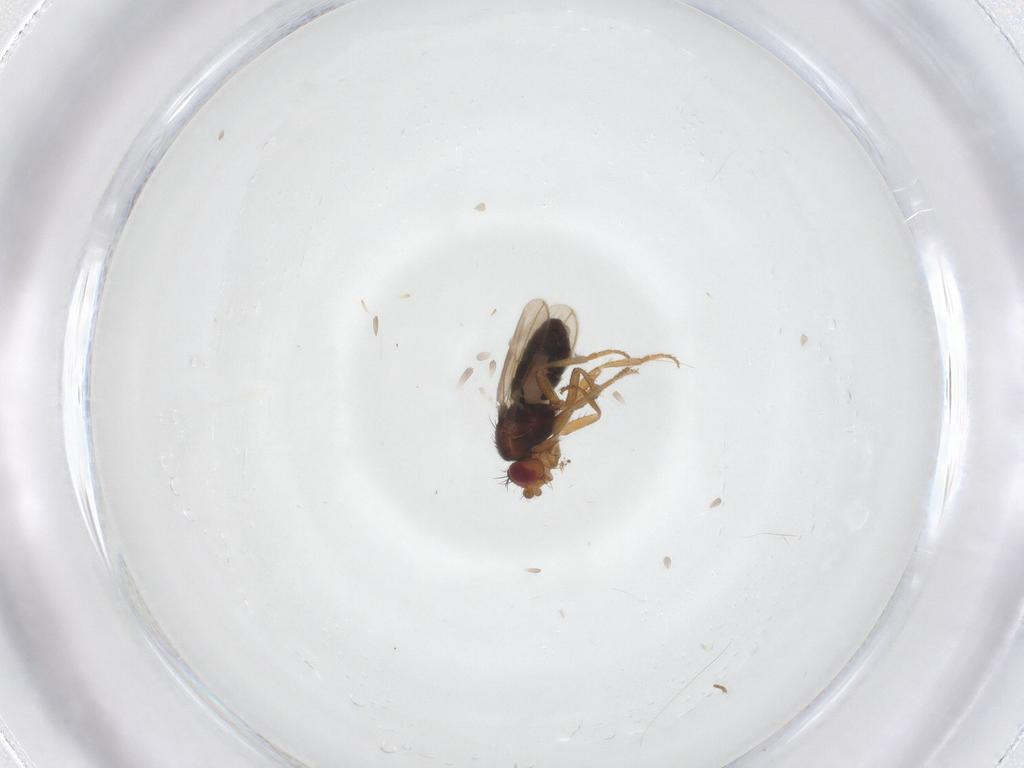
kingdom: Animalia
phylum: Arthropoda
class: Insecta
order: Diptera
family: Sphaeroceridae
